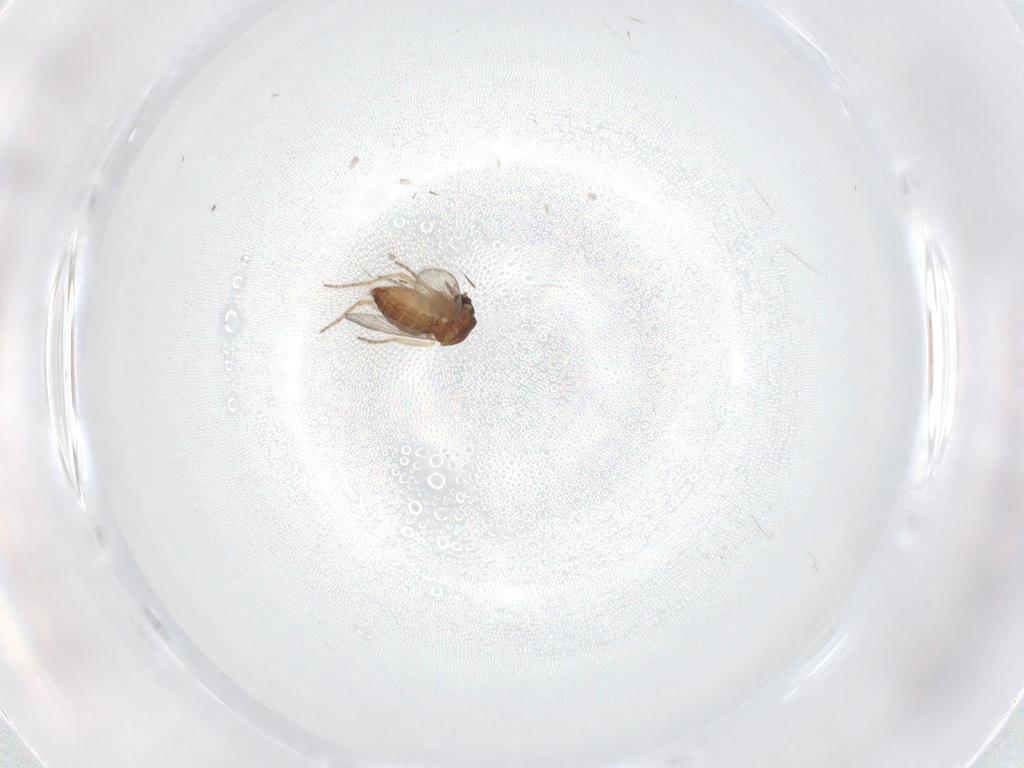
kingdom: Animalia
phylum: Arthropoda
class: Insecta
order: Diptera
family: Ceratopogonidae
